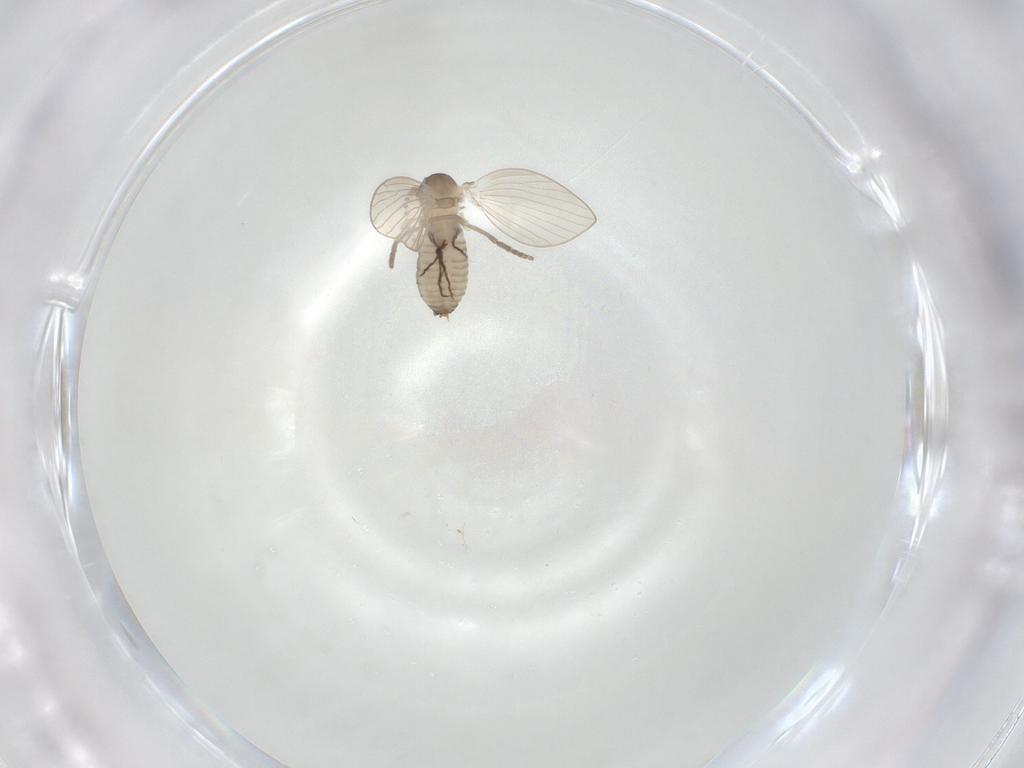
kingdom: Animalia
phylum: Arthropoda
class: Insecta
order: Diptera
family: Psychodidae
